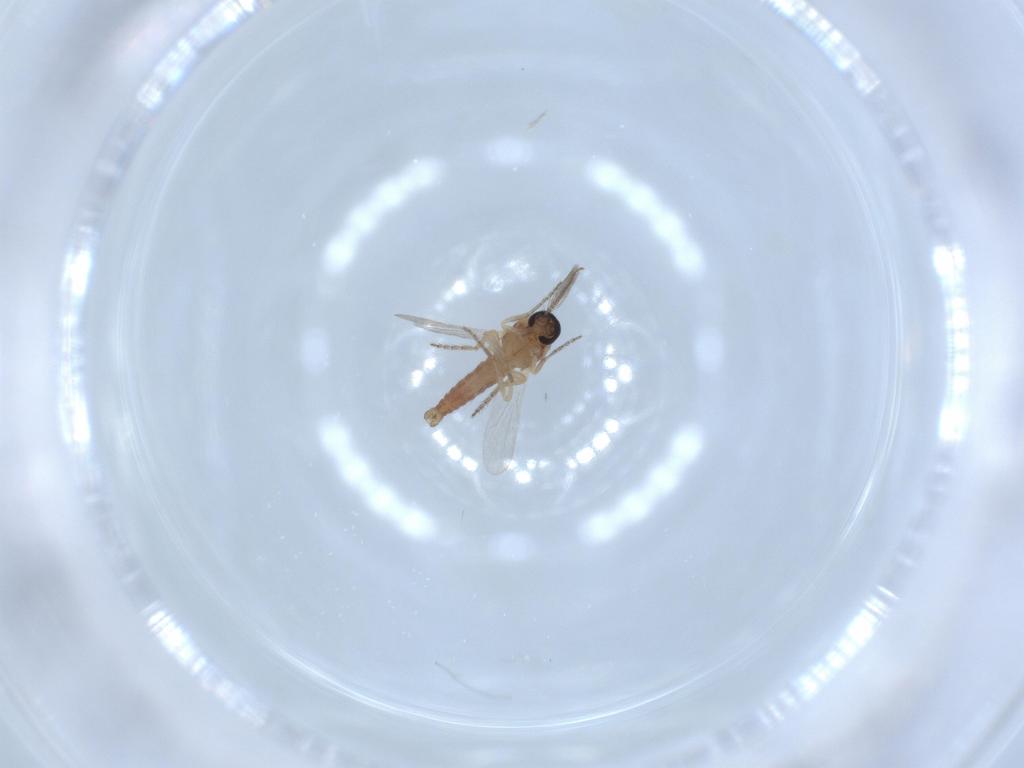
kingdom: Animalia
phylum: Arthropoda
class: Insecta
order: Diptera
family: Ceratopogonidae
